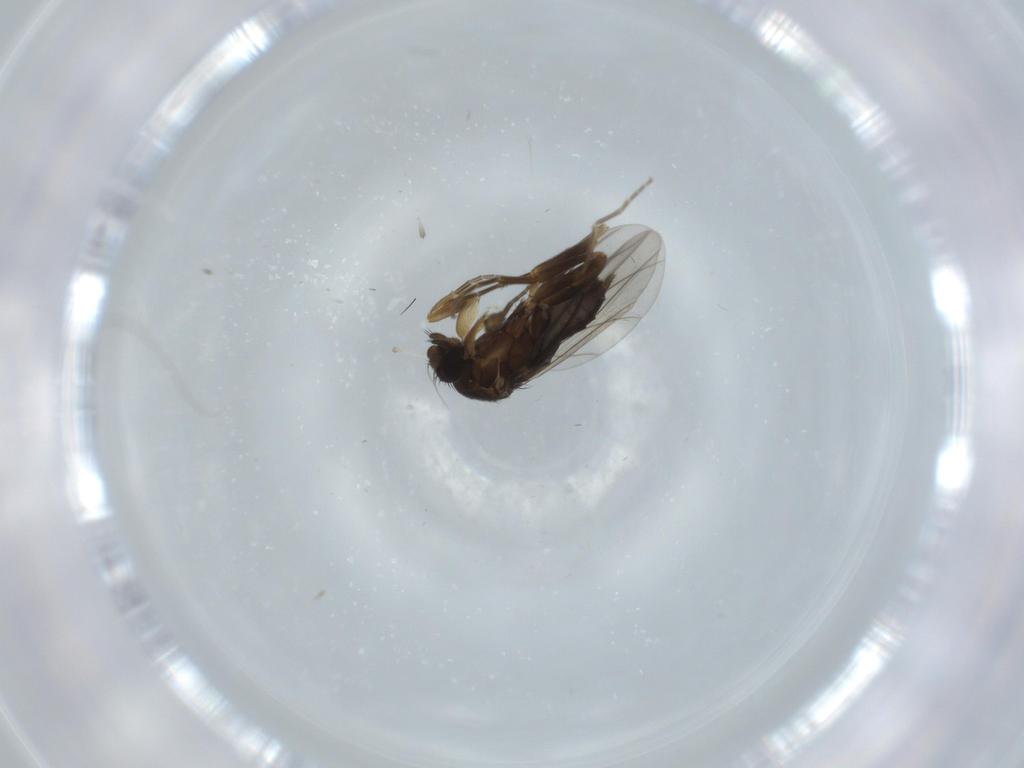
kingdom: Animalia
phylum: Arthropoda
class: Insecta
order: Diptera
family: Phoridae
